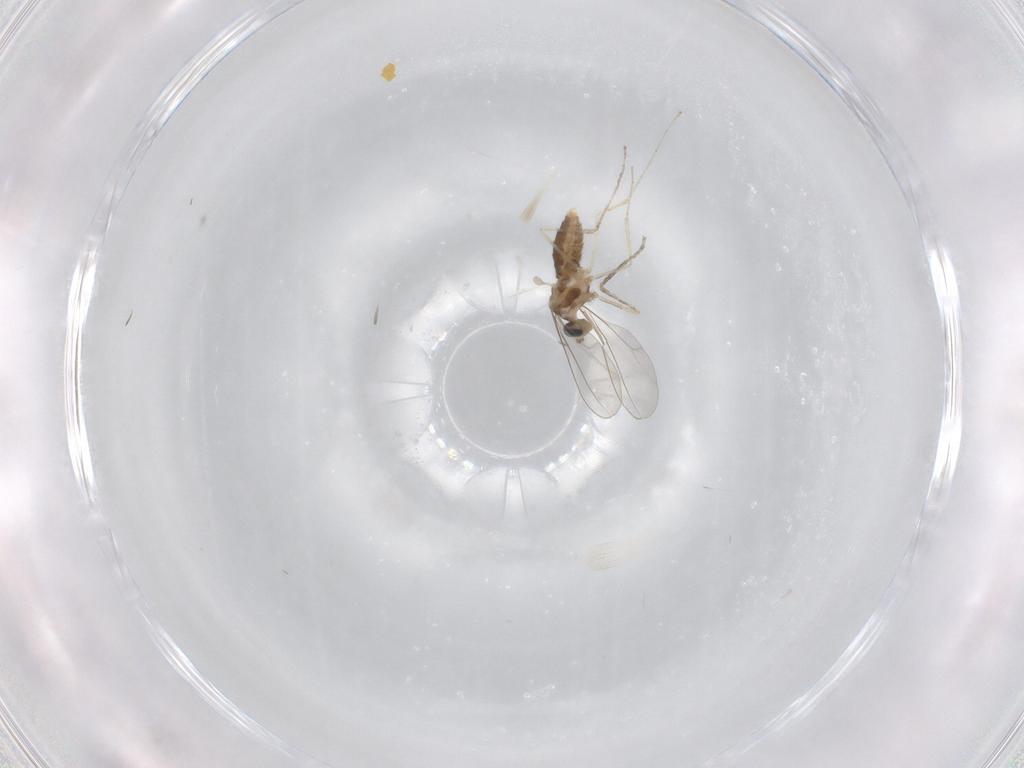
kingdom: Animalia
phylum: Arthropoda
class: Insecta
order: Diptera
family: Cecidomyiidae
